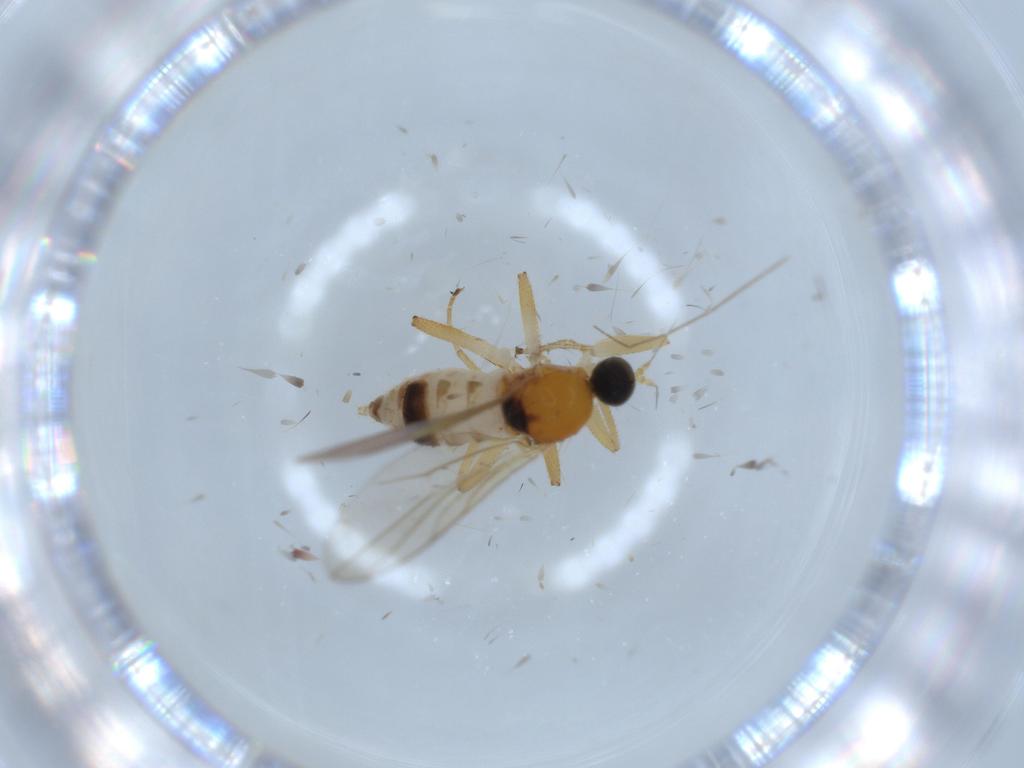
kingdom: Animalia
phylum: Arthropoda
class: Insecta
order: Diptera
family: Hybotidae
